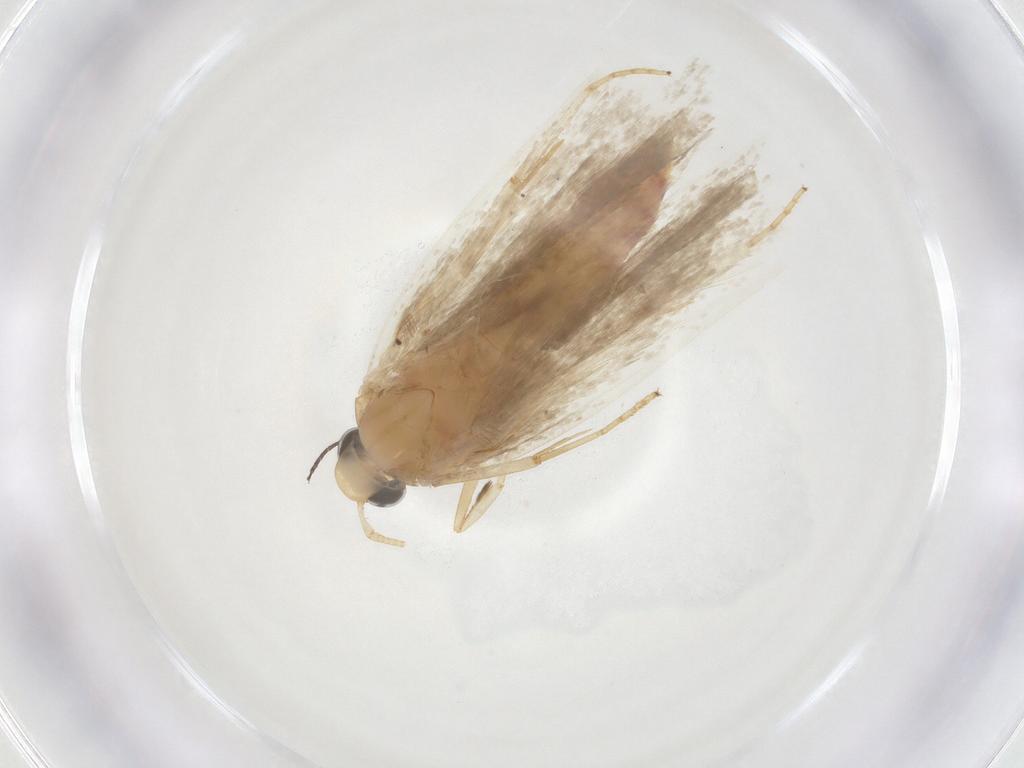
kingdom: Animalia
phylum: Arthropoda
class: Insecta
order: Lepidoptera
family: Autostichidae
